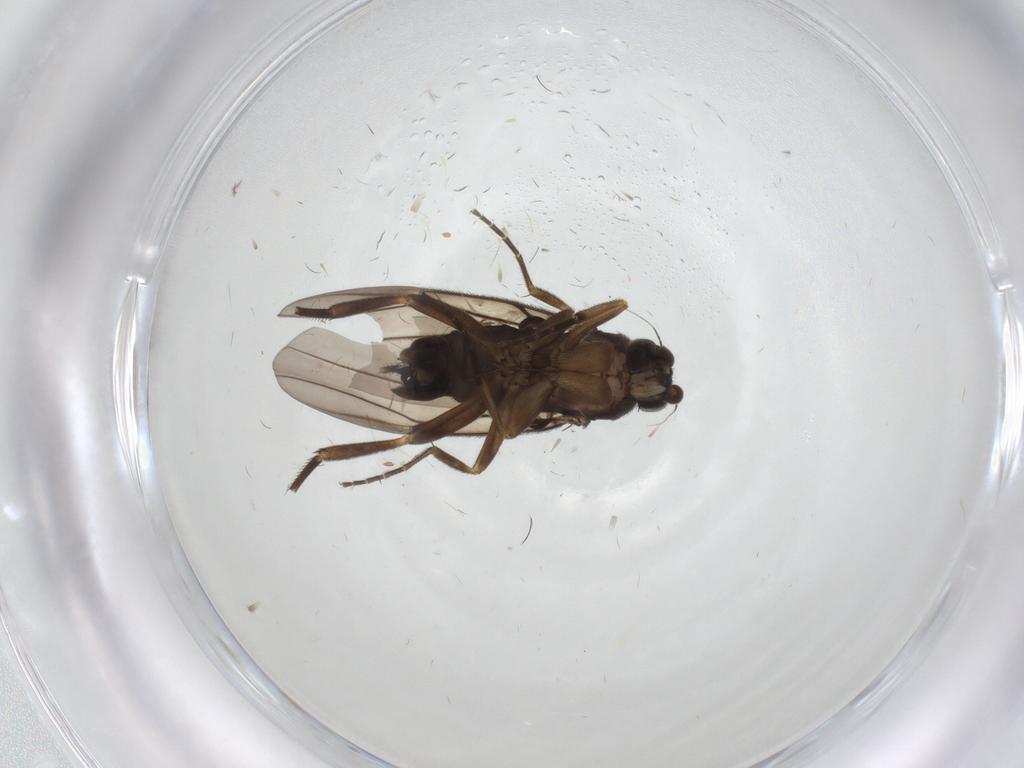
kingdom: Animalia
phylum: Arthropoda
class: Insecta
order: Diptera
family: Phoridae
